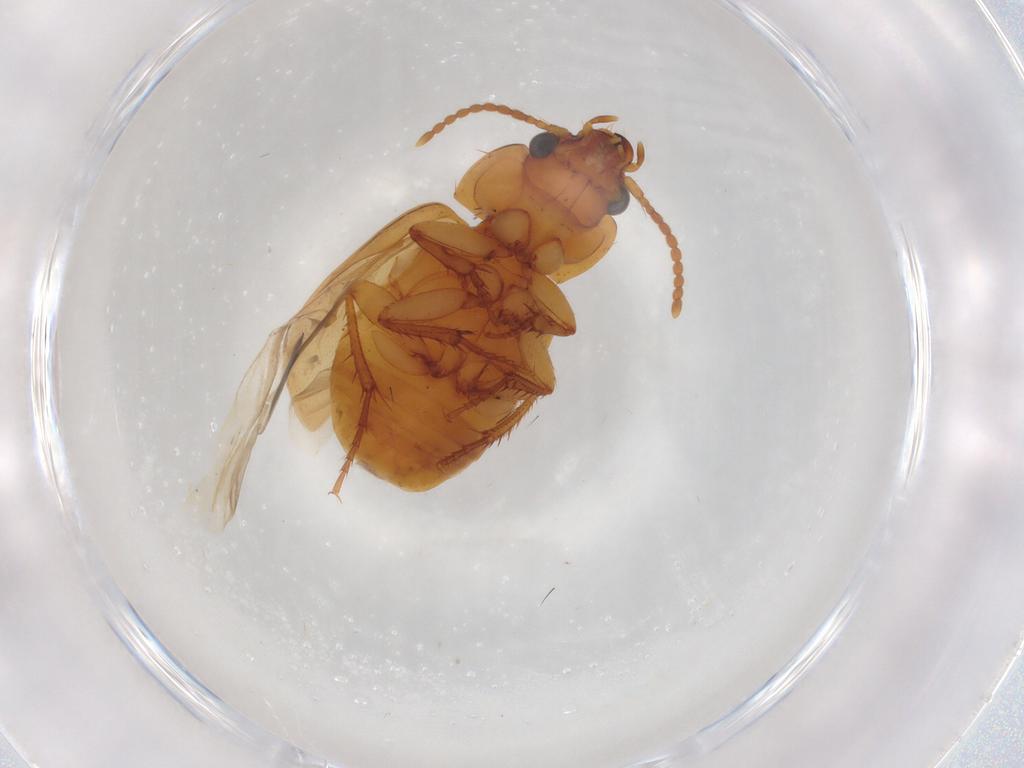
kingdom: Animalia
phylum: Arthropoda
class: Insecta
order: Coleoptera
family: Carabidae
